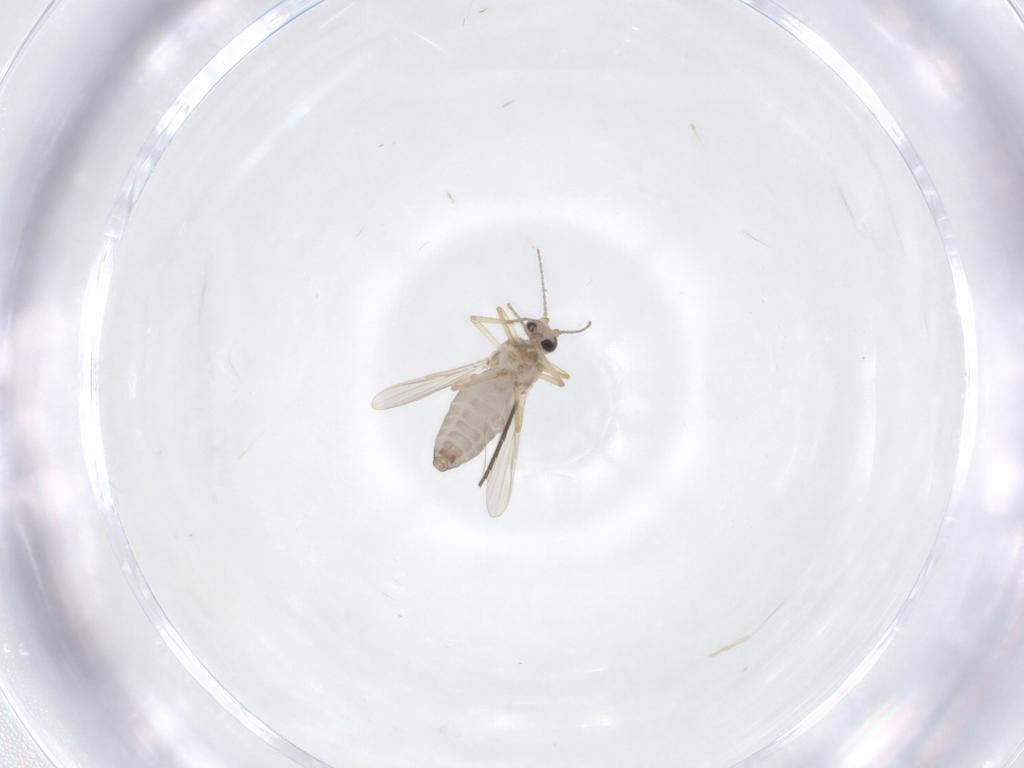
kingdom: Animalia
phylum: Arthropoda
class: Insecta
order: Diptera
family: Ceratopogonidae
